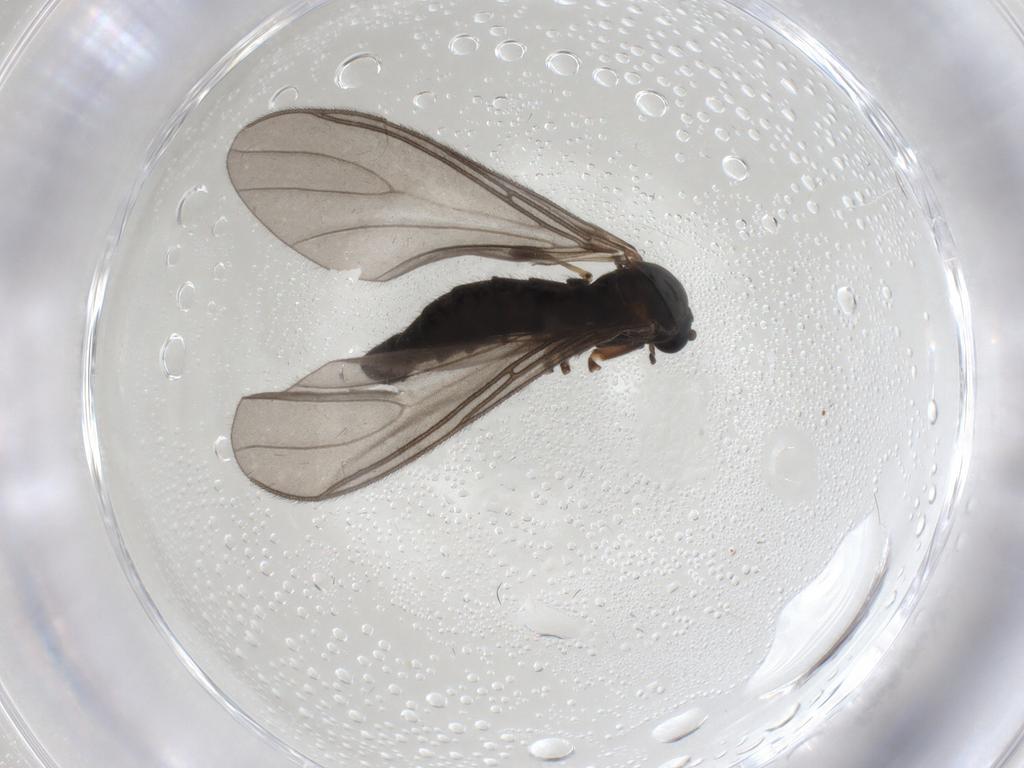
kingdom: Animalia
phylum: Arthropoda
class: Insecta
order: Diptera
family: Sciaridae
